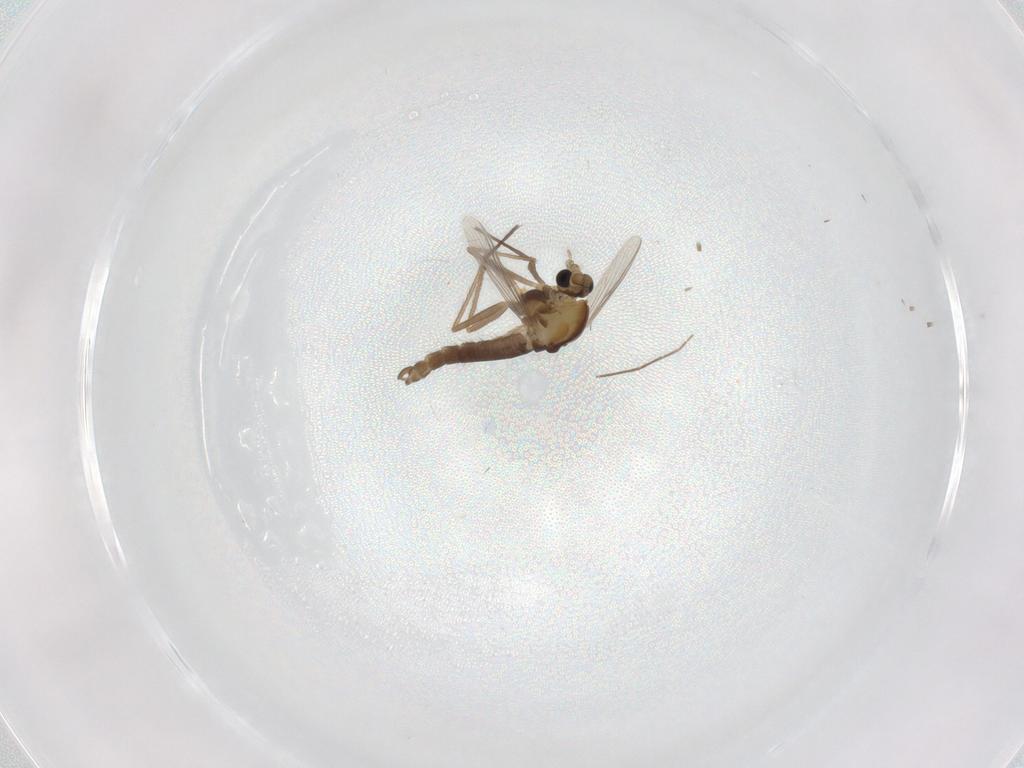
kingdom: Animalia
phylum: Arthropoda
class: Insecta
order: Diptera
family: Chironomidae
